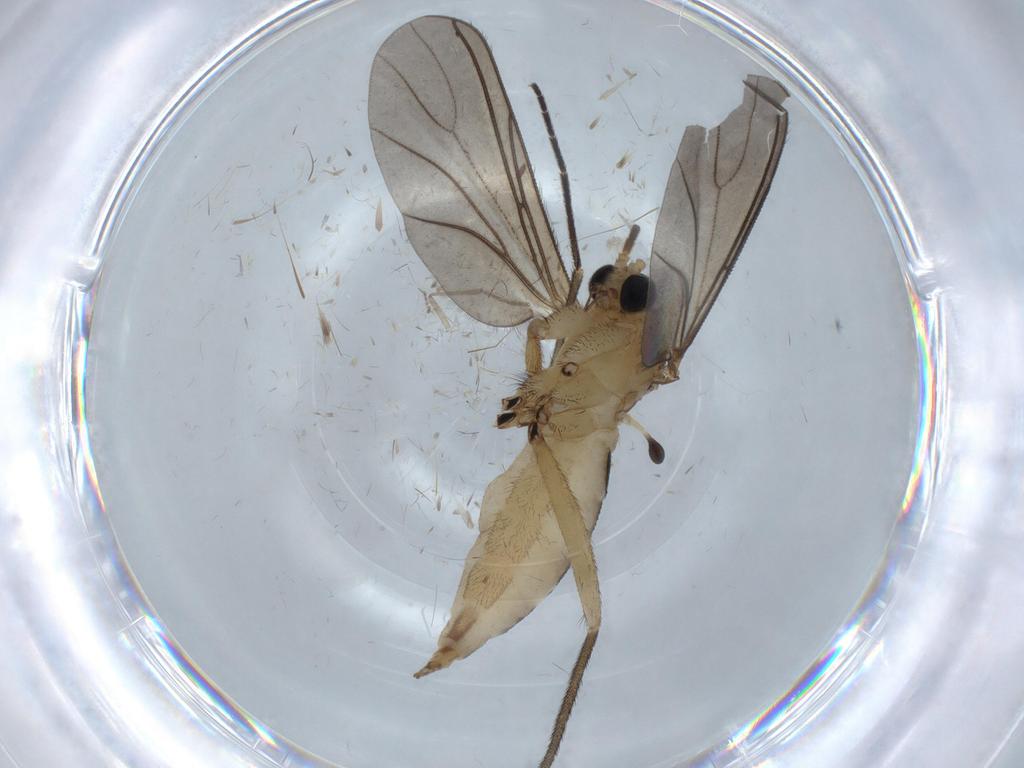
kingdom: Animalia
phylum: Arthropoda
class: Insecta
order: Diptera
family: Sciaridae
